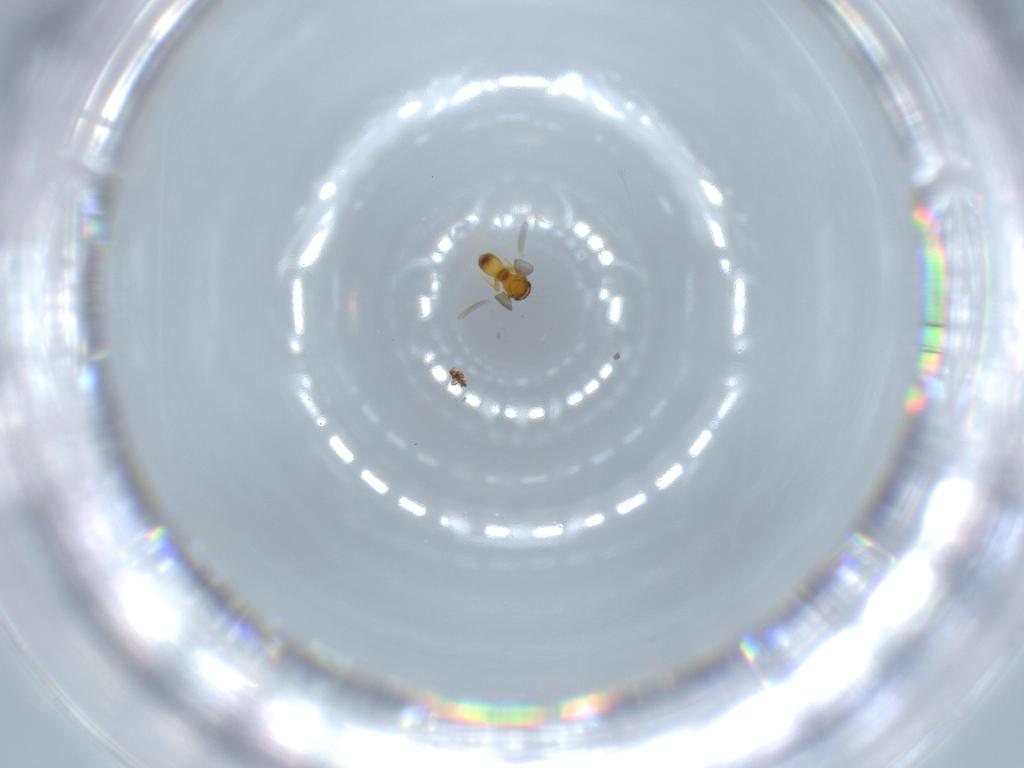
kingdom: Animalia
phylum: Arthropoda
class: Insecta
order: Hymenoptera
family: Platygastridae
